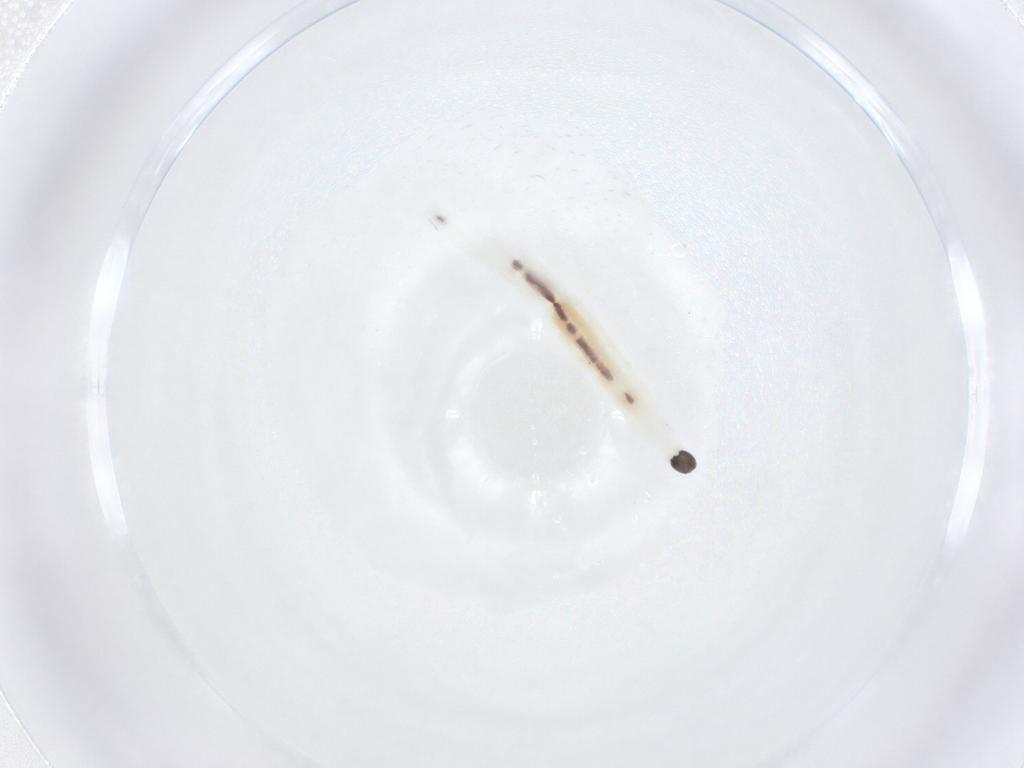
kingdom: Animalia
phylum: Arthropoda
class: Insecta
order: Diptera
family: Sciaridae
